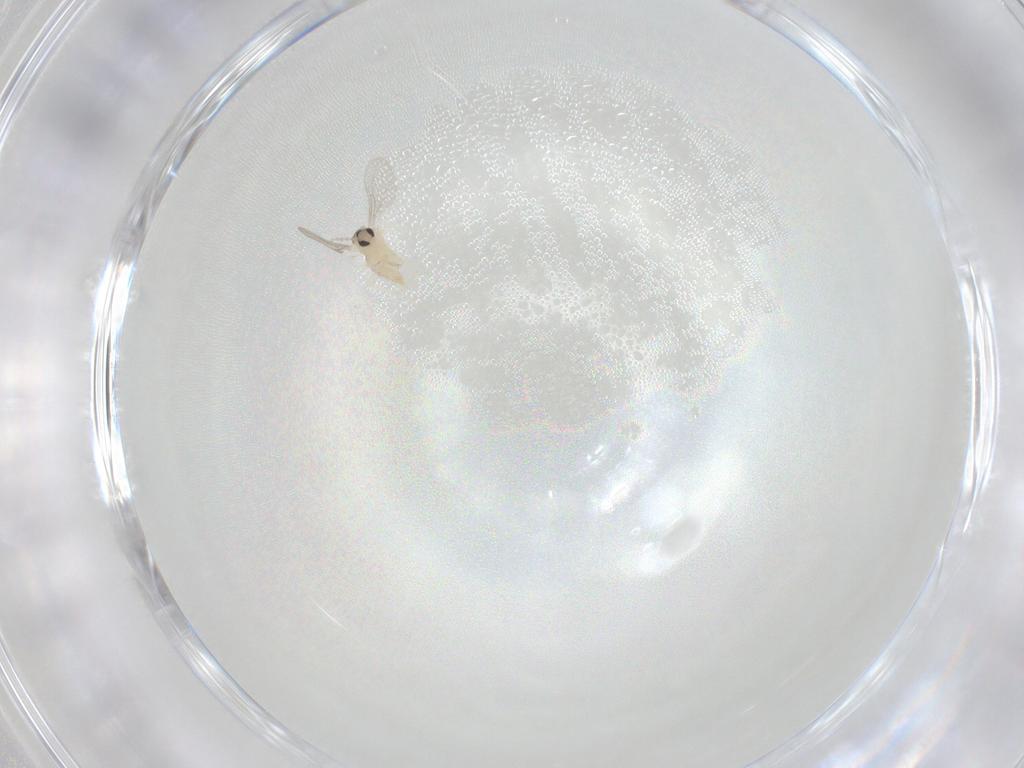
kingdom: Animalia
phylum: Arthropoda
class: Insecta
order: Diptera
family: Cecidomyiidae
